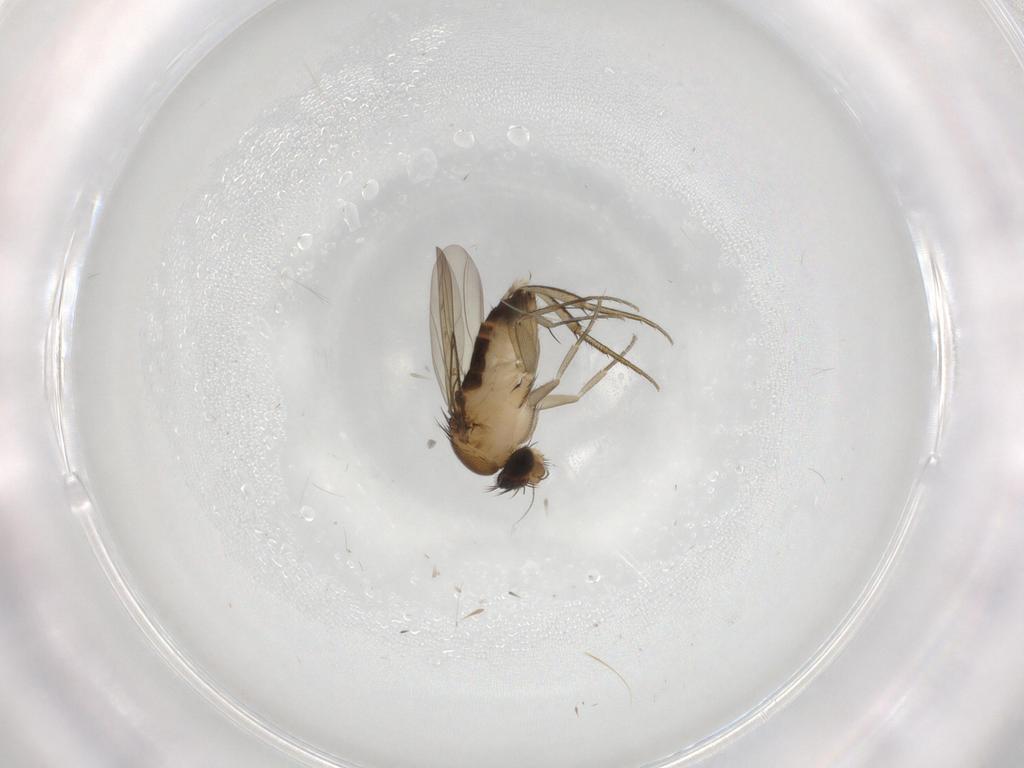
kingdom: Animalia
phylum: Arthropoda
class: Insecta
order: Diptera
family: Phoridae
